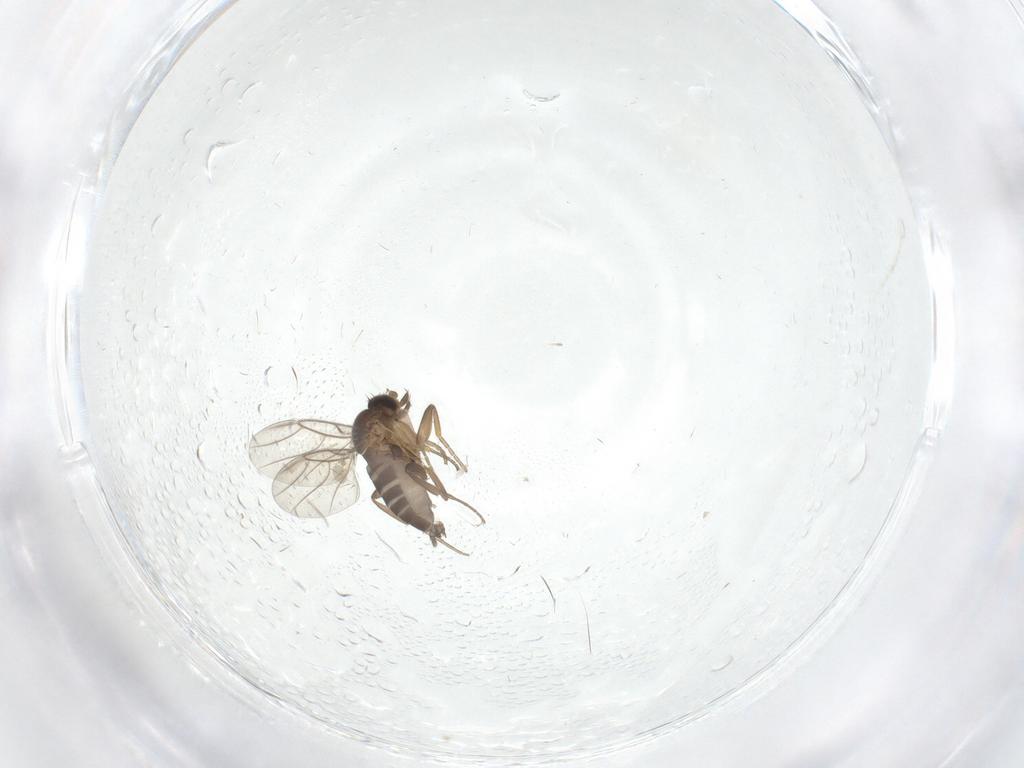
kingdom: Animalia
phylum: Arthropoda
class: Insecta
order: Diptera
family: Phoridae
